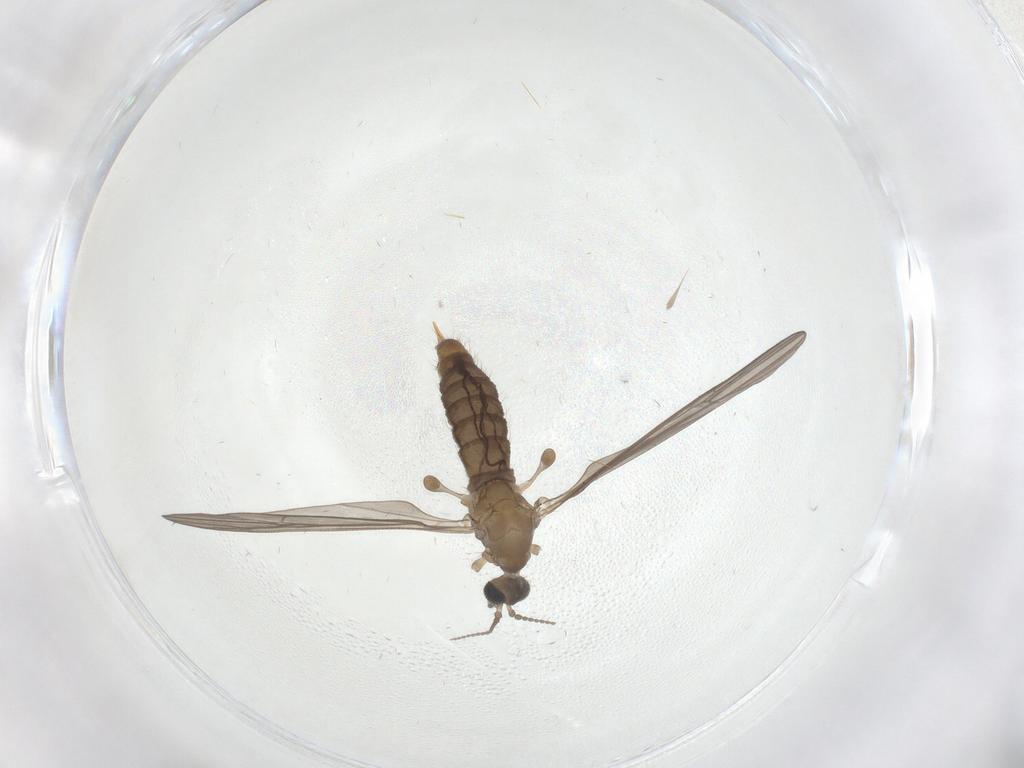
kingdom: Animalia
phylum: Arthropoda
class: Insecta
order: Diptera
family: Limoniidae
